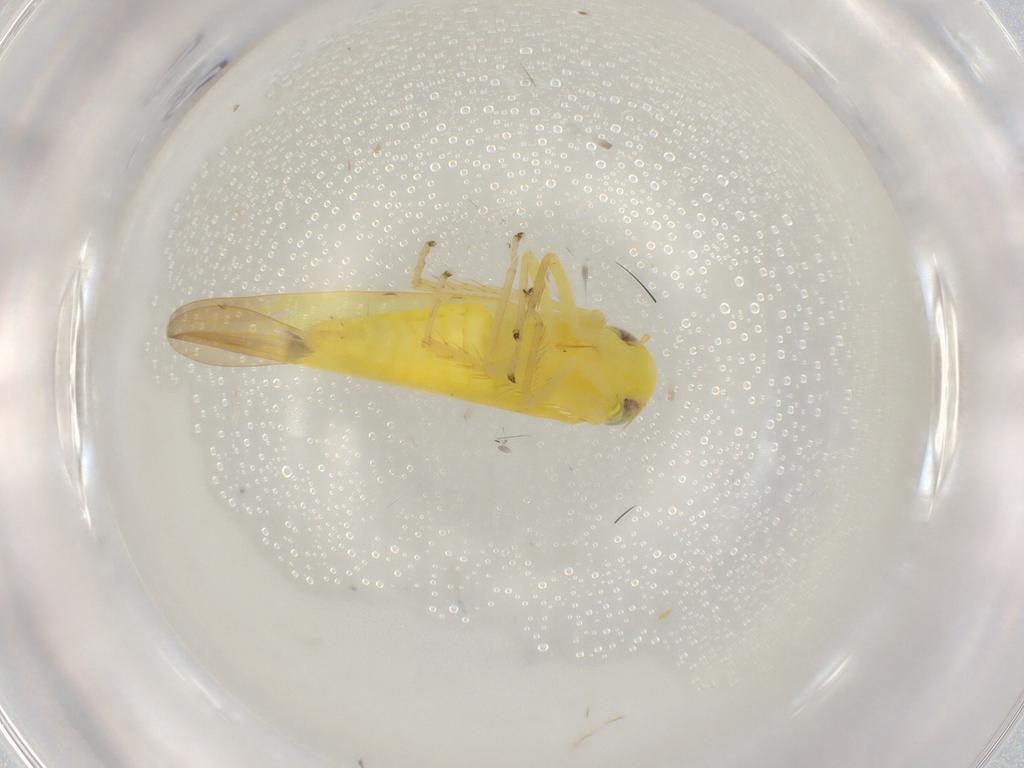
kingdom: Animalia
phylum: Arthropoda
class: Insecta
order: Hemiptera
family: Cicadellidae
